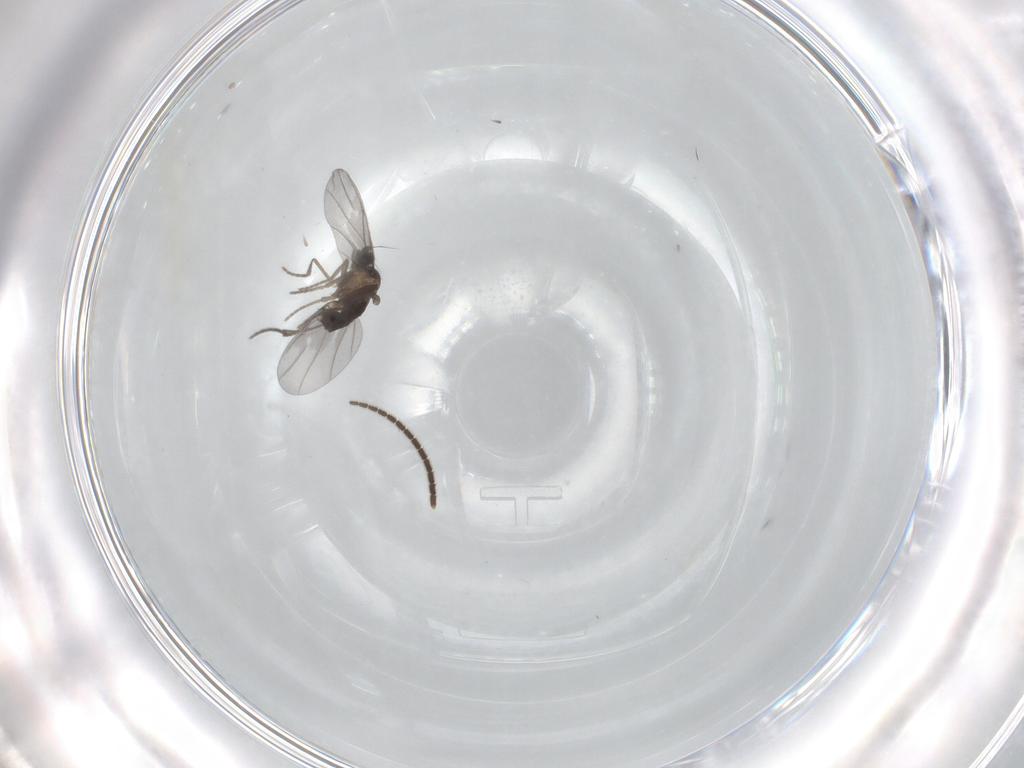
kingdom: Animalia
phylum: Arthropoda
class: Insecta
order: Diptera
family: Phoridae
